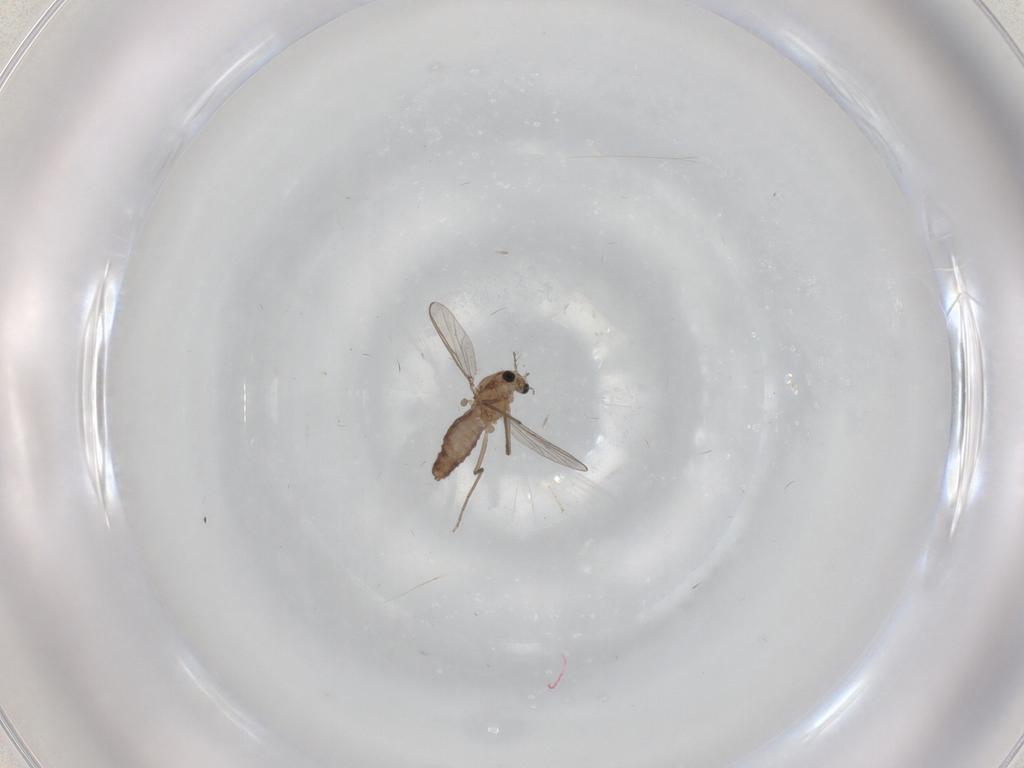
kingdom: Animalia
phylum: Arthropoda
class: Insecta
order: Diptera
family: Chironomidae
